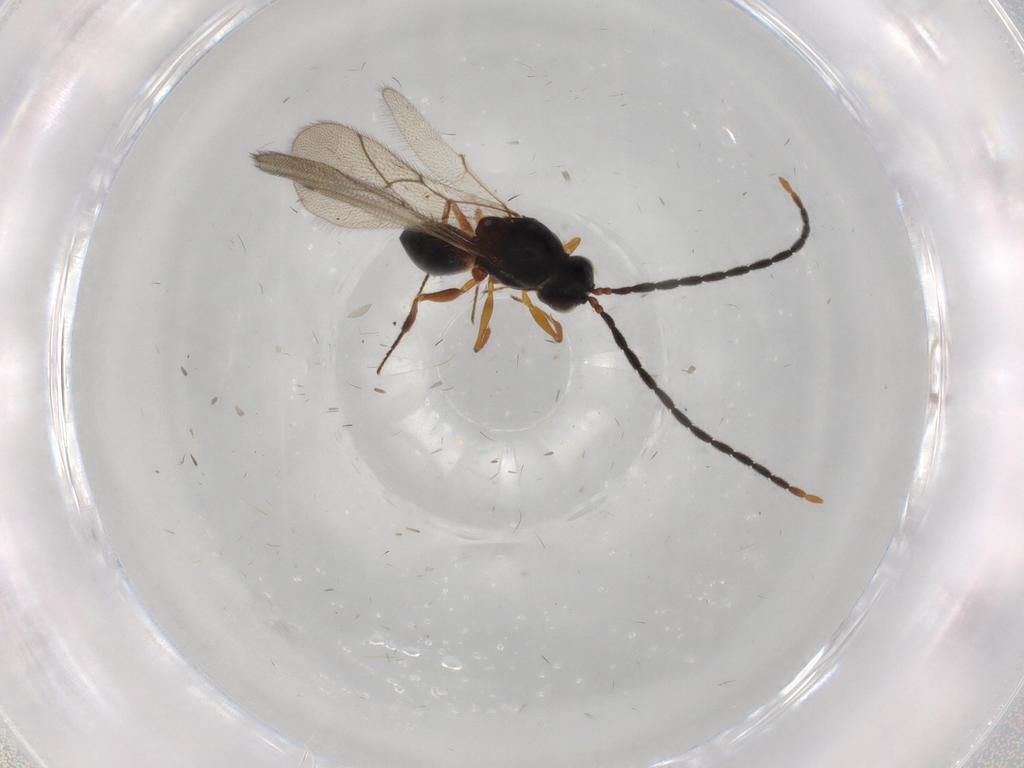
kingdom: Animalia
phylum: Arthropoda
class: Insecta
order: Hymenoptera
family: Figitidae
